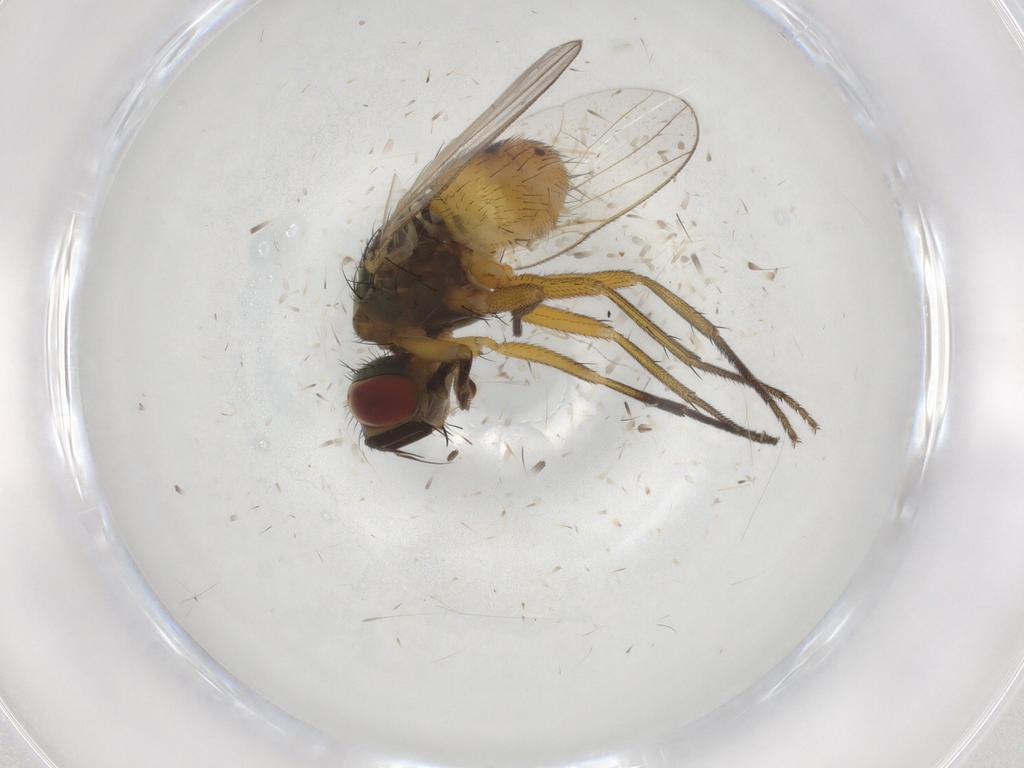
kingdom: Animalia
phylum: Arthropoda
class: Insecta
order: Diptera
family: Muscidae
